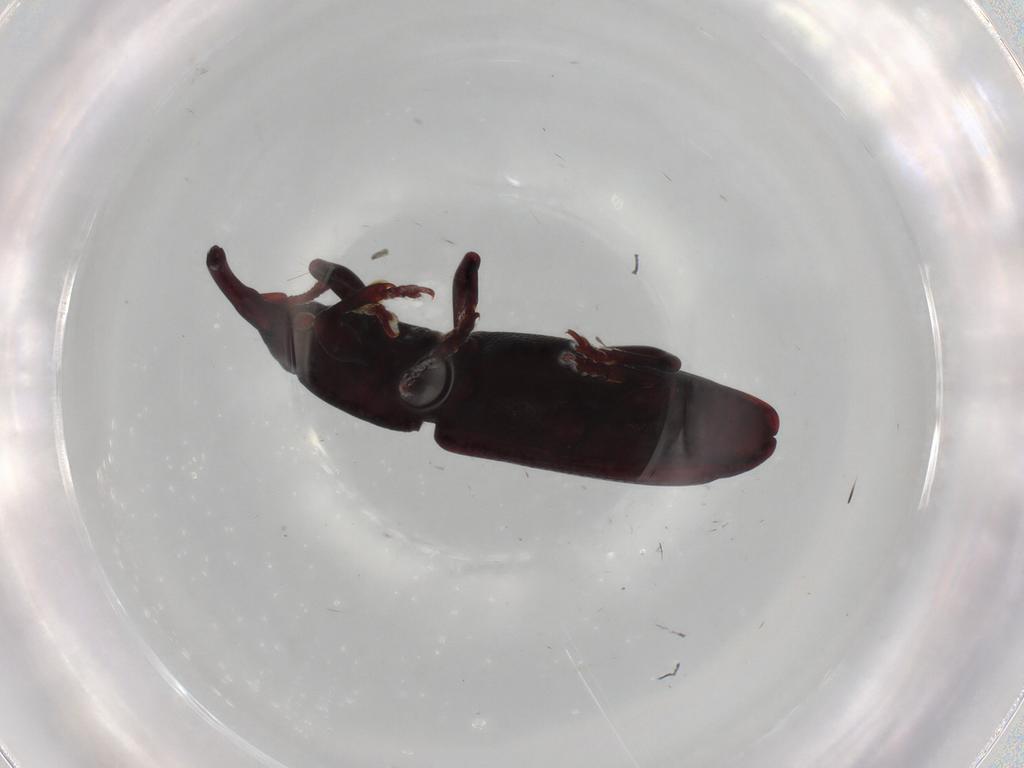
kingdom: Animalia
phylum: Arthropoda
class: Insecta
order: Coleoptera
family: Curculionidae
